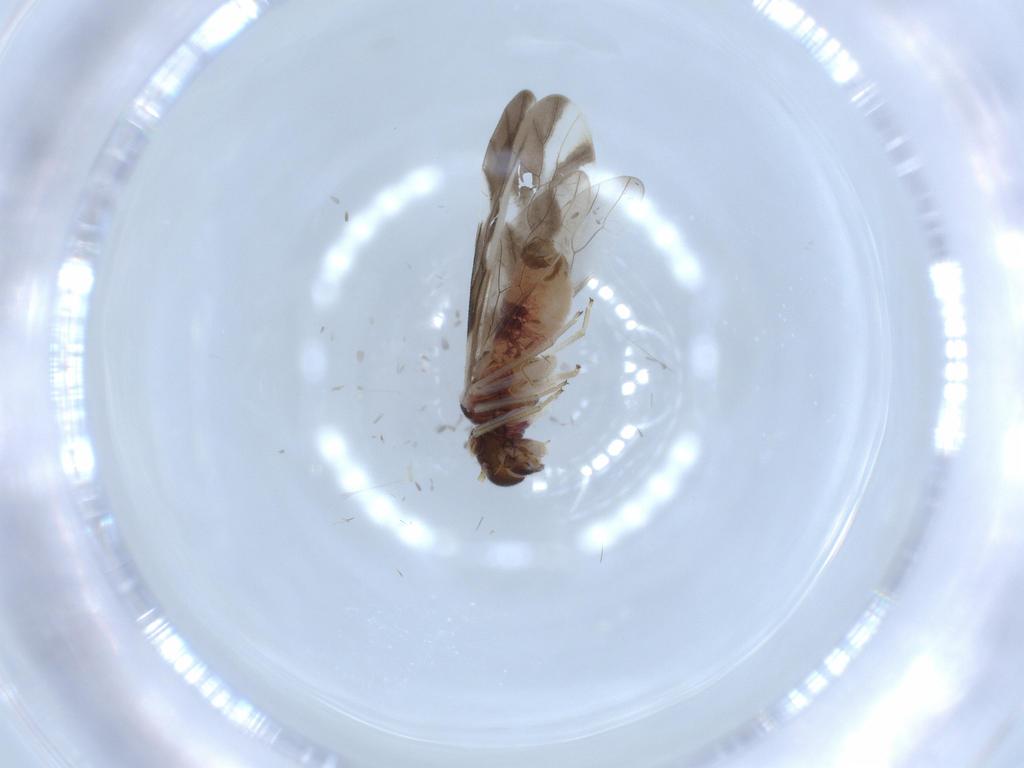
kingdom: Animalia
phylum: Arthropoda
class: Insecta
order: Psocodea
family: Caeciliusidae
